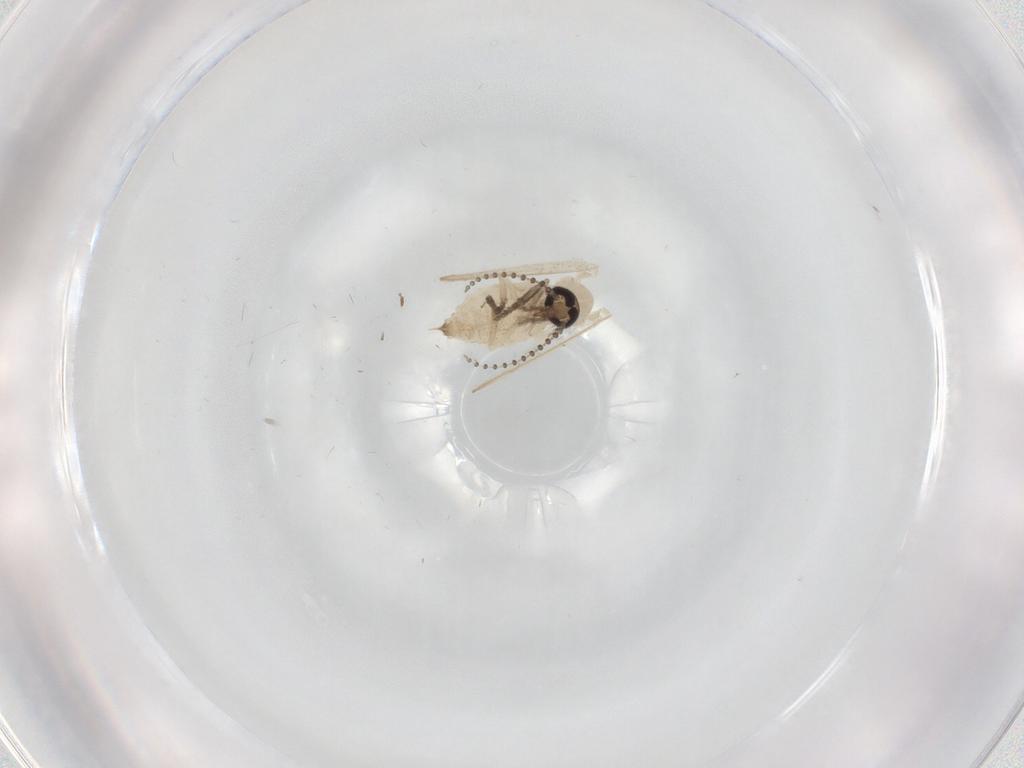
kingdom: Animalia
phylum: Arthropoda
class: Insecta
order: Diptera
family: Psychodidae
